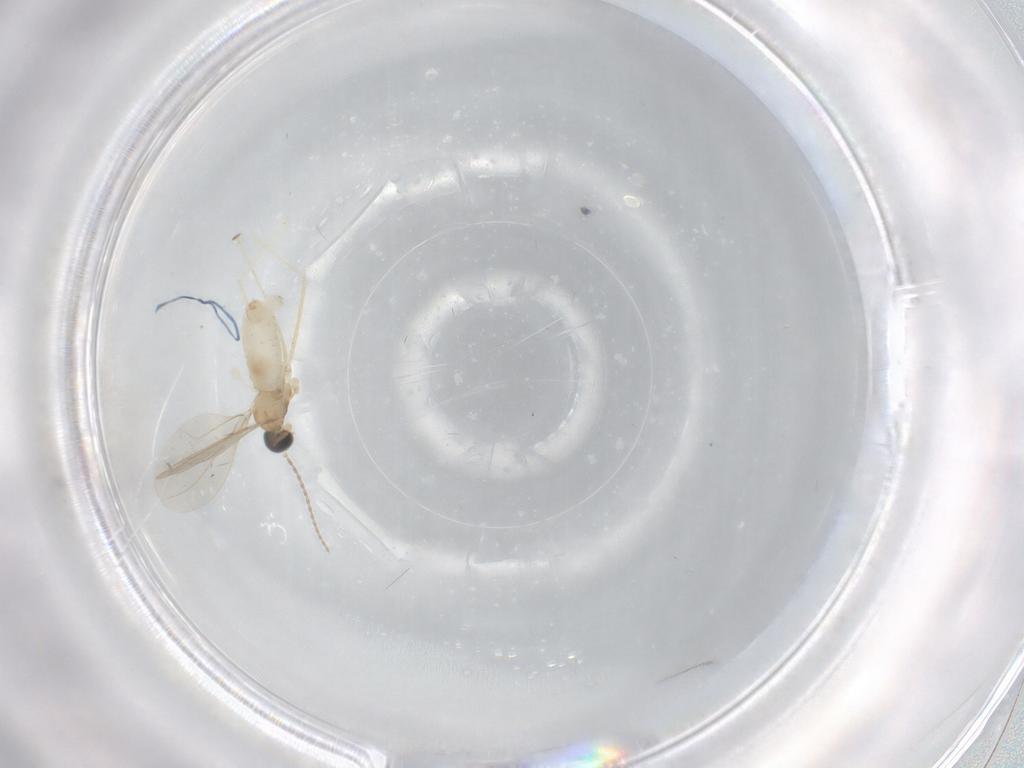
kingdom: Animalia
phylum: Arthropoda
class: Insecta
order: Diptera
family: Cecidomyiidae
